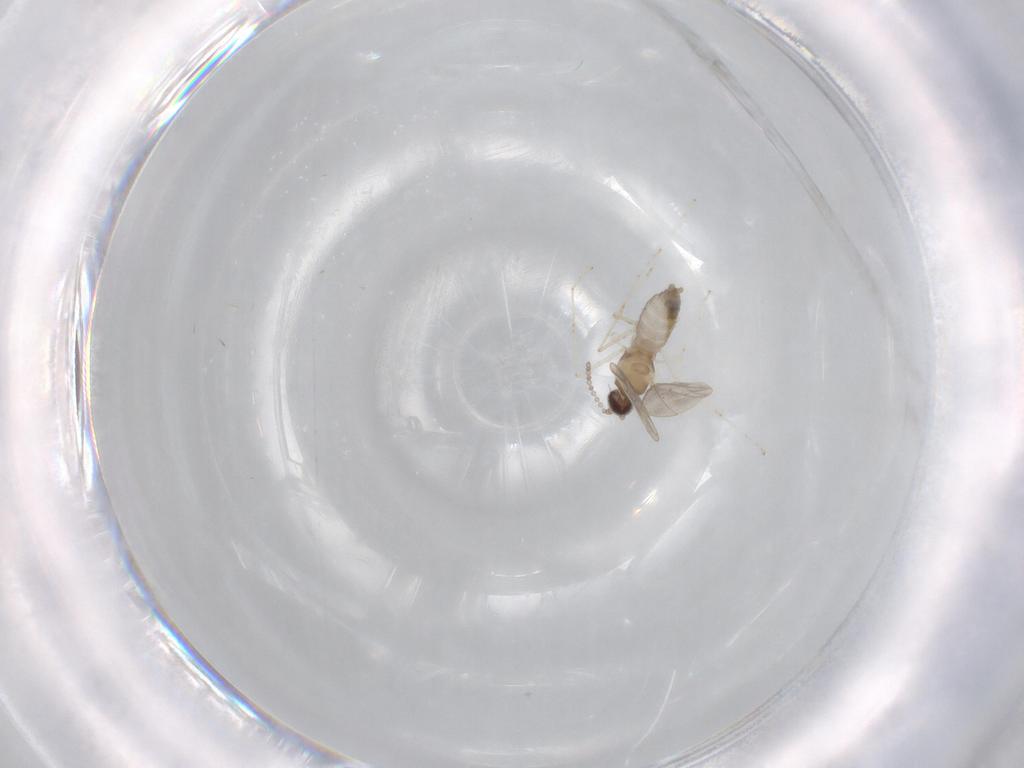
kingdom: Animalia
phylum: Arthropoda
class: Insecta
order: Diptera
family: Cecidomyiidae
